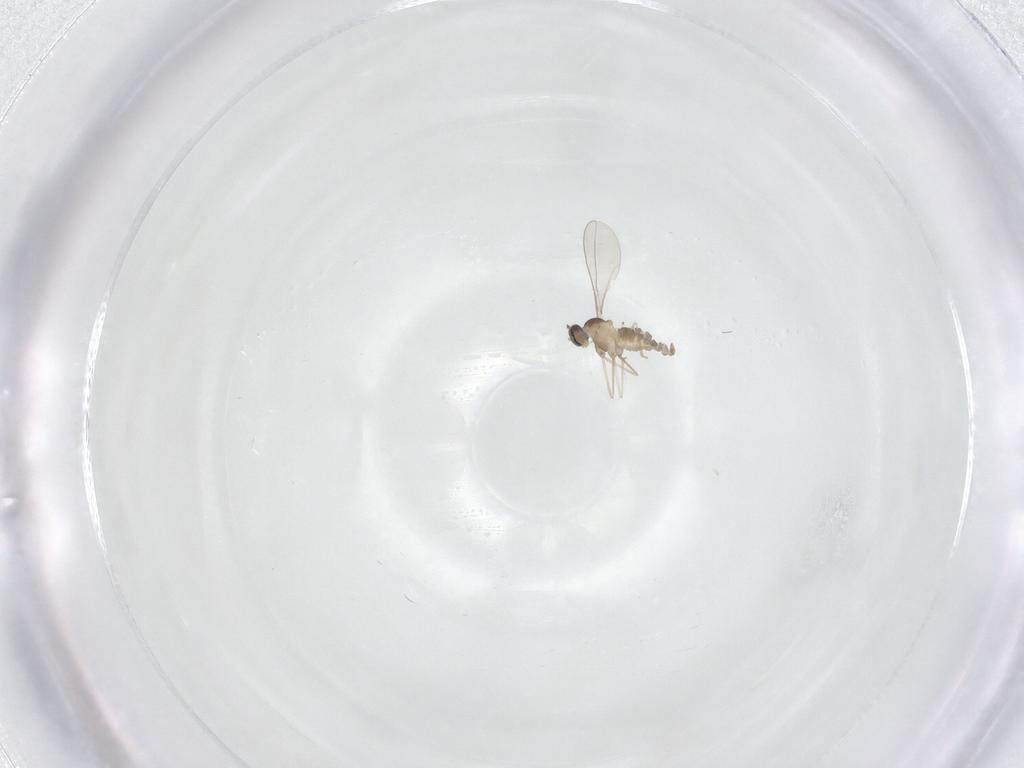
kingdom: Animalia
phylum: Arthropoda
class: Insecta
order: Diptera
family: Cecidomyiidae
